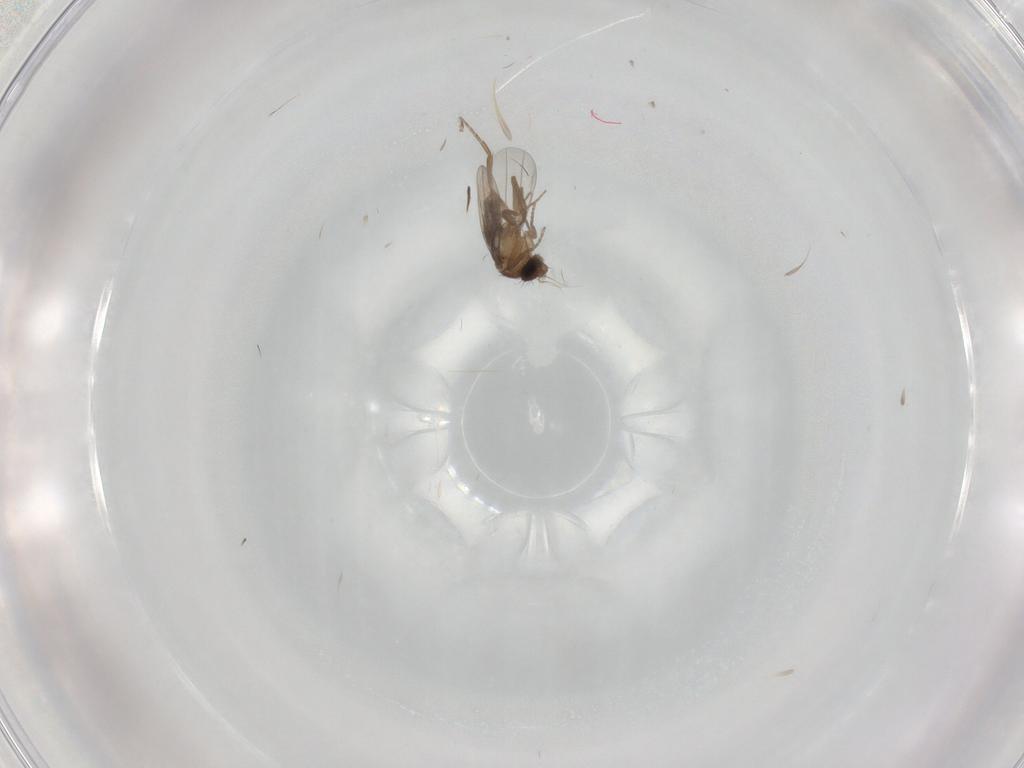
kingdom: Animalia
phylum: Arthropoda
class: Insecta
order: Diptera
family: Phoridae
